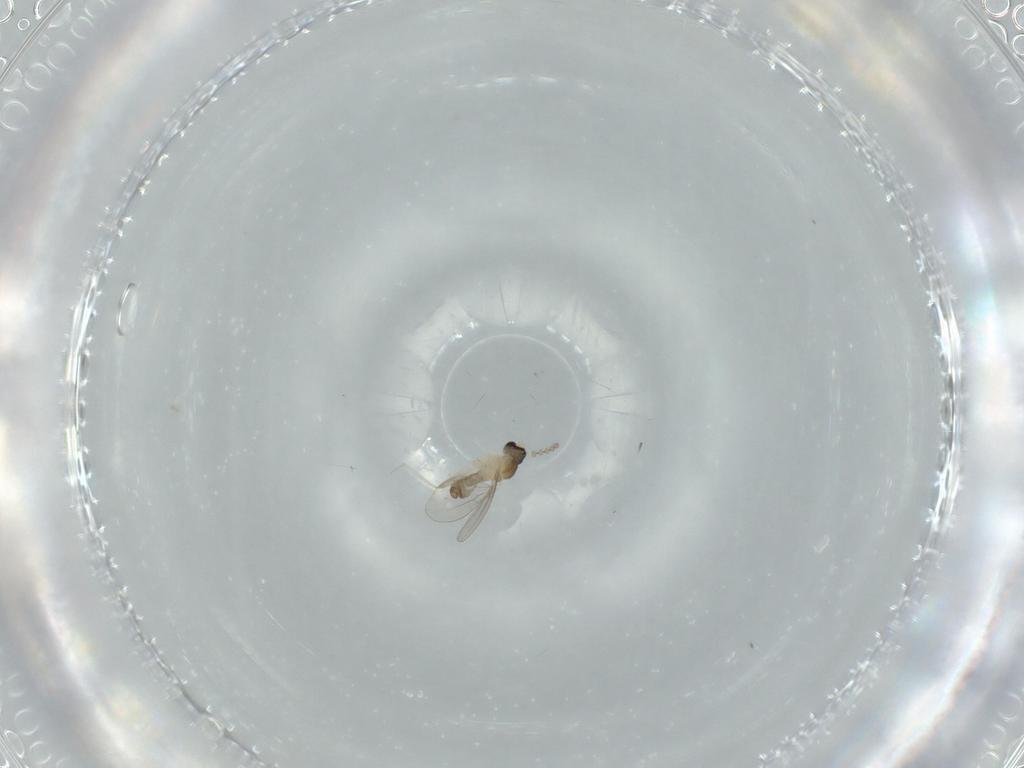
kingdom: Animalia
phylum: Arthropoda
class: Insecta
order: Diptera
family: Cecidomyiidae
